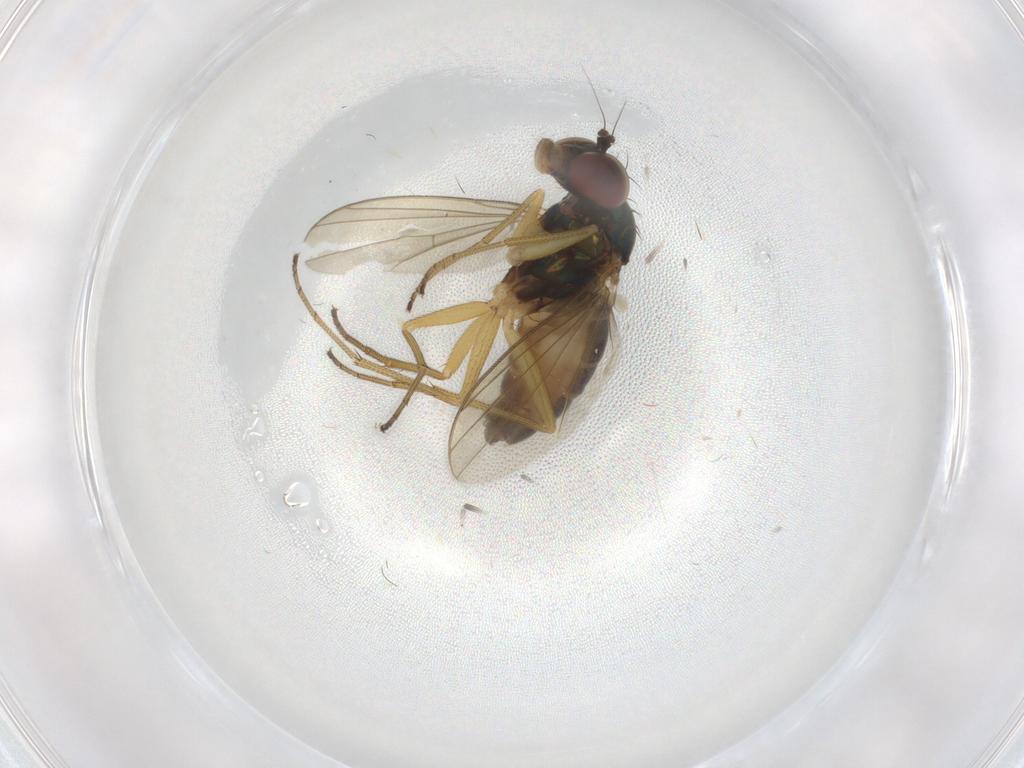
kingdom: Animalia
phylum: Arthropoda
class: Insecta
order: Diptera
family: Dolichopodidae
